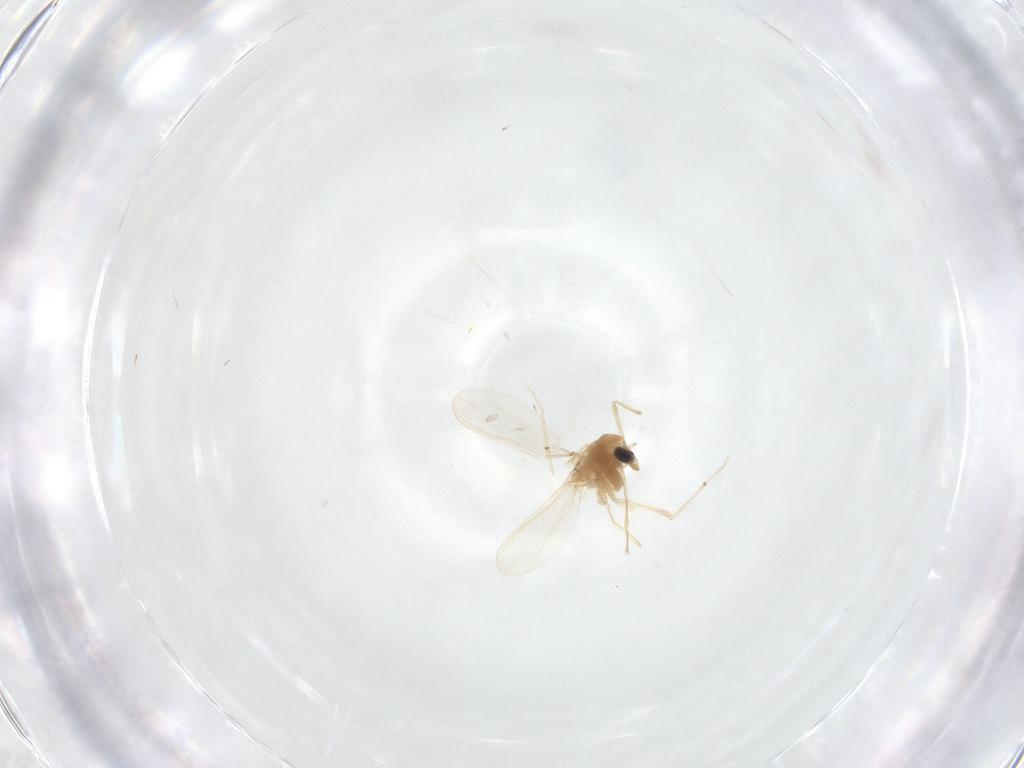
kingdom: Animalia
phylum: Arthropoda
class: Insecta
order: Diptera
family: Chironomidae
